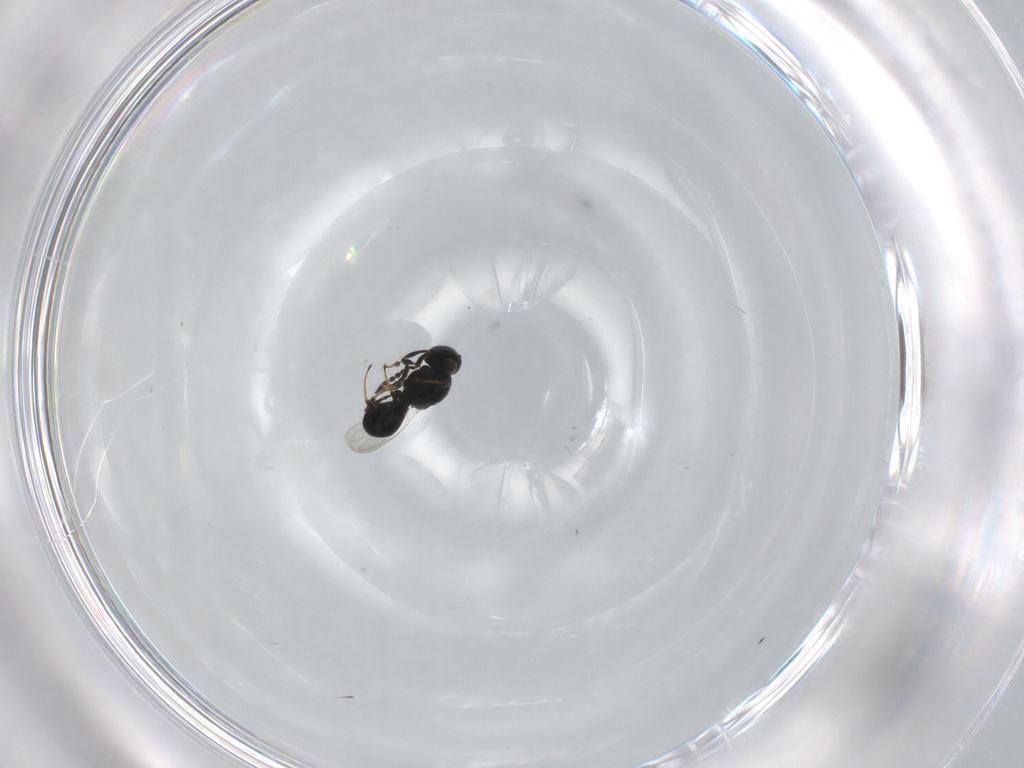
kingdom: Animalia
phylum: Arthropoda
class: Insecta
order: Hymenoptera
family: Platygastridae
